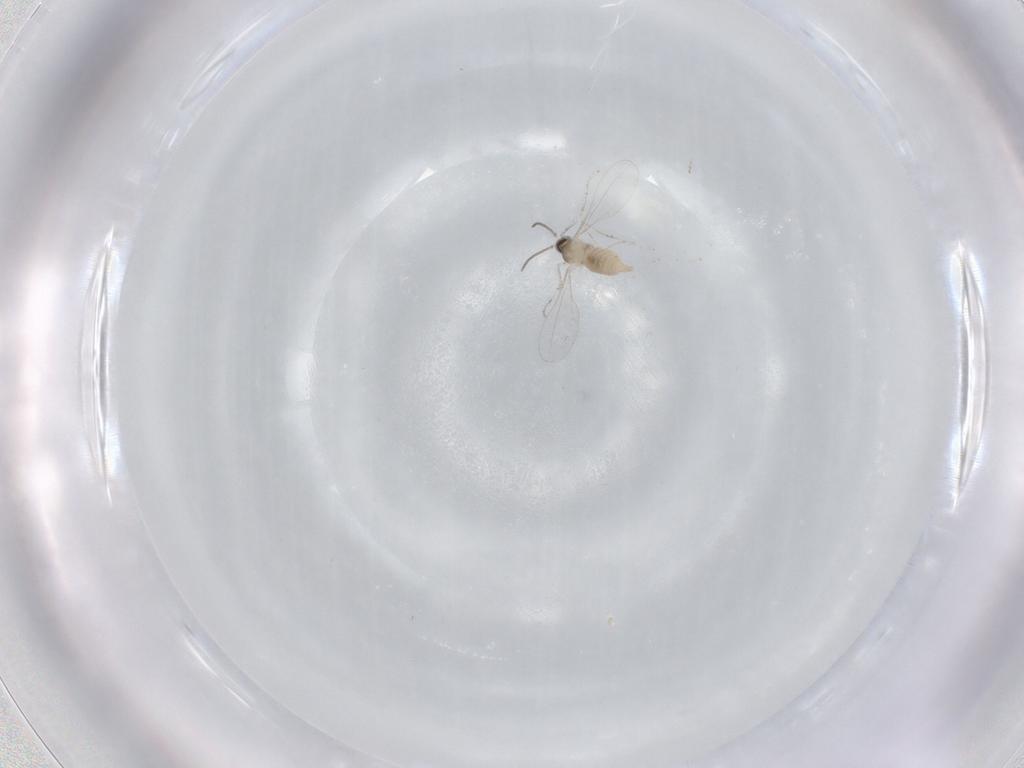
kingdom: Animalia
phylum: Arthropoda
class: Insecta
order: Diptera
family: Cecidomyiidae
